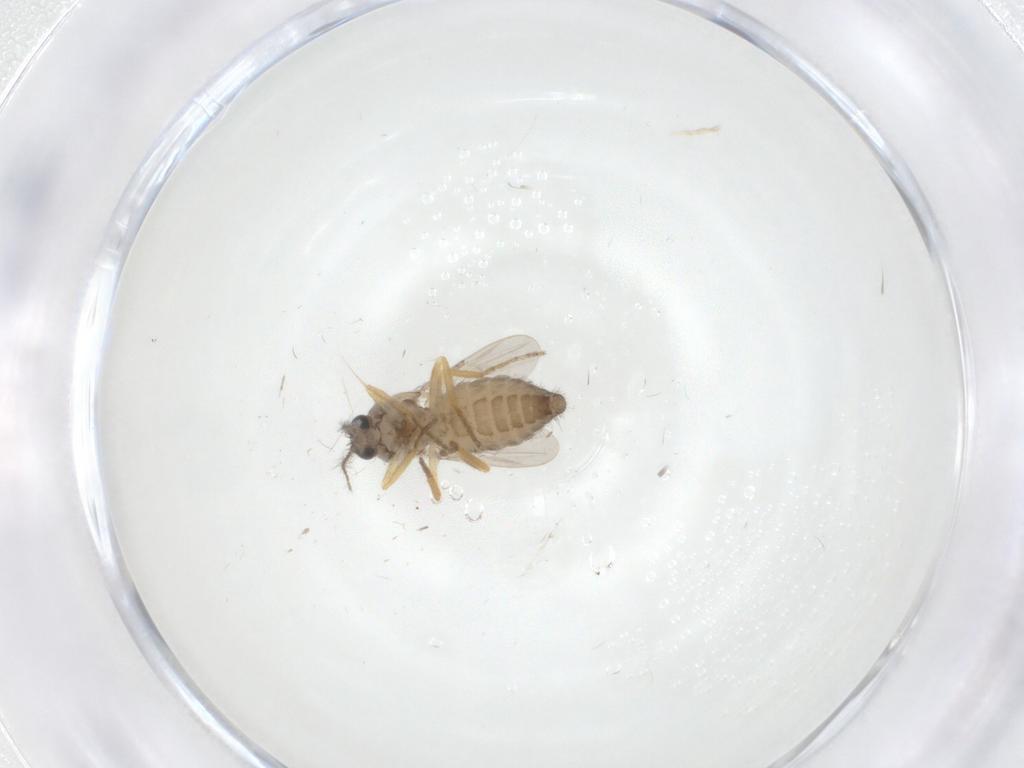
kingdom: Animalia
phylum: Arthropoda
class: Insecta
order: Diptera
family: Ceratopogonidae
